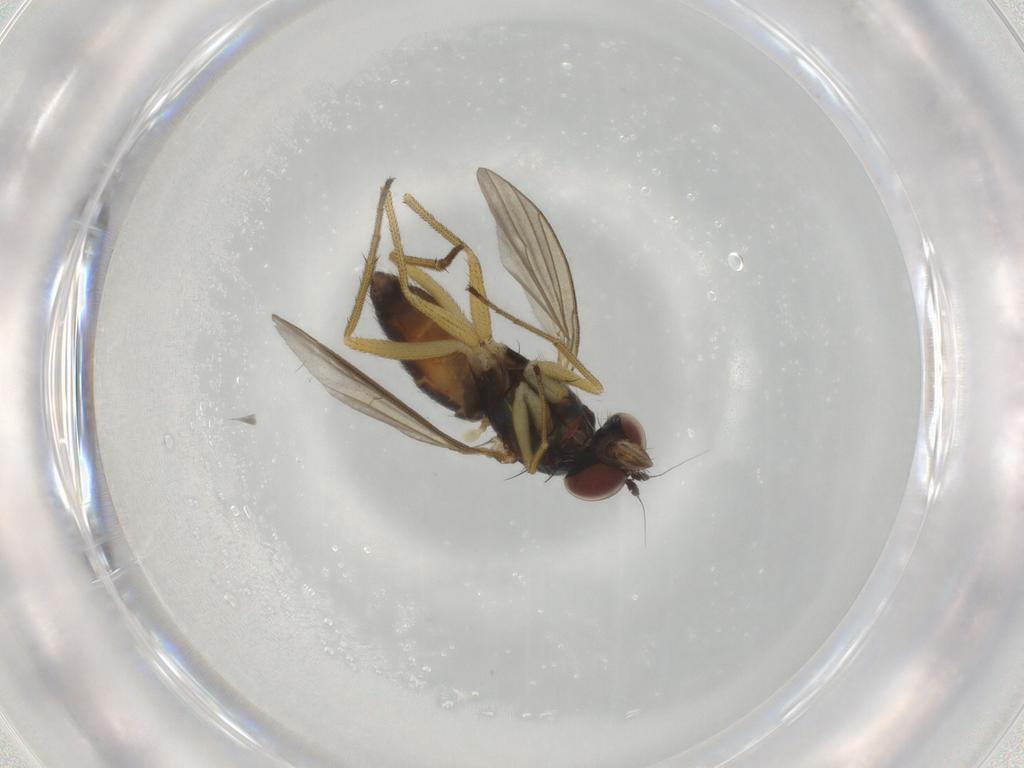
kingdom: Animalia
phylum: Arthropoda
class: Insecta
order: Diptera
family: Dolichopodidae
